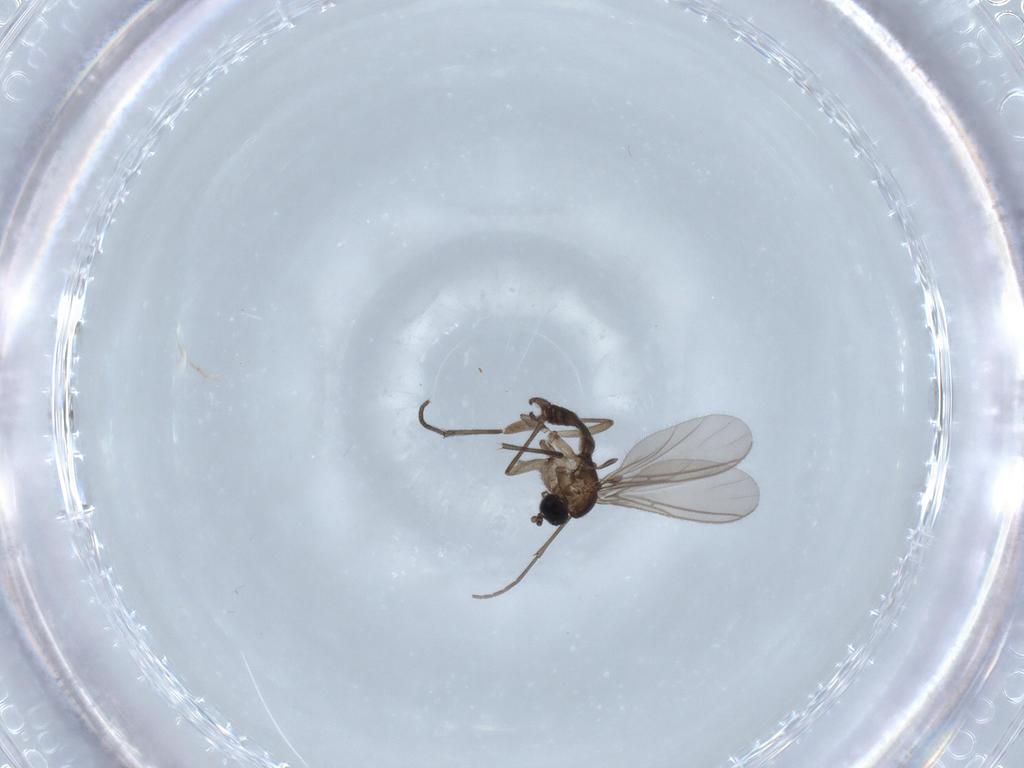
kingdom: Animalia
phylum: Arthropoda
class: Insecta
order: Diptera
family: Sciaridae
